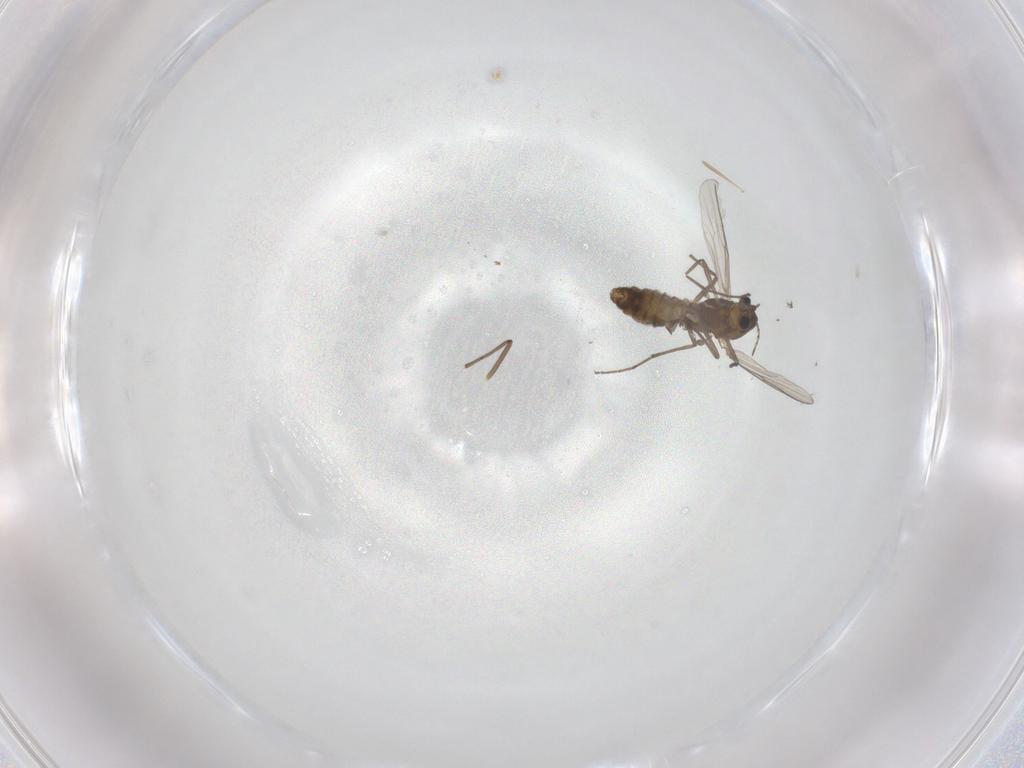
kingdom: Animalia
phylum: Arthropoda
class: Insecta
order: Diptera
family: Chironomidae
